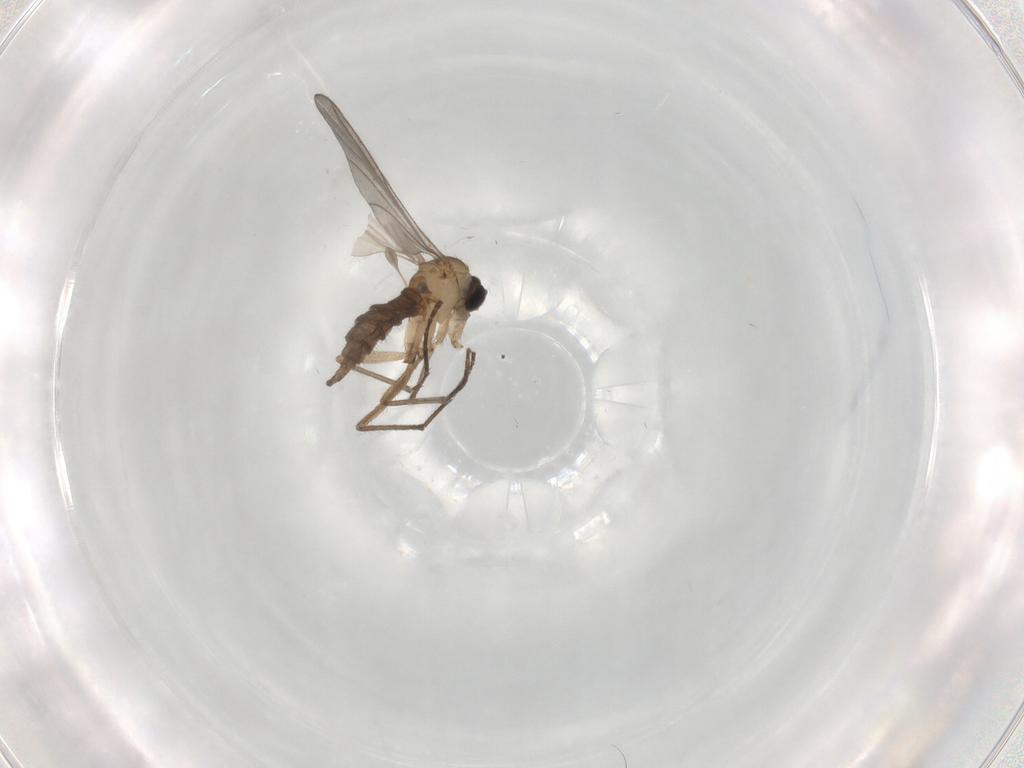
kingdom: Animalia
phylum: Arthropoda
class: Insecta
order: Diptera
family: Sciaridae
